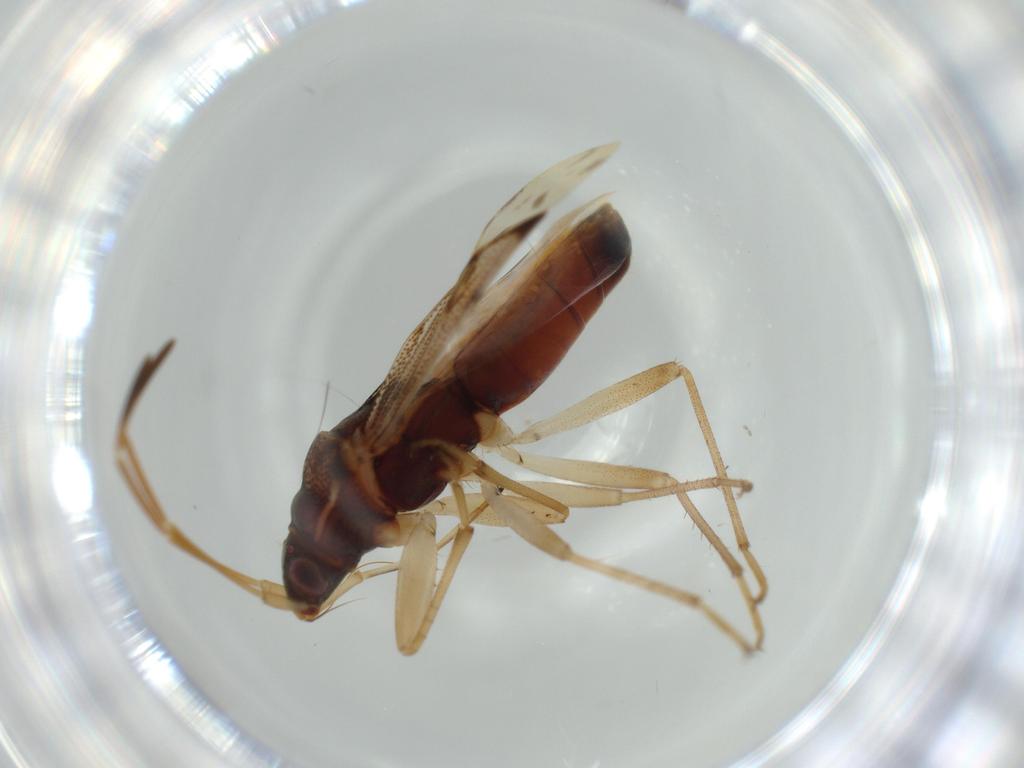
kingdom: Animalia
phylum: Arthropoda
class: Insecta
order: Hemiptera
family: Rhyparochromidae
